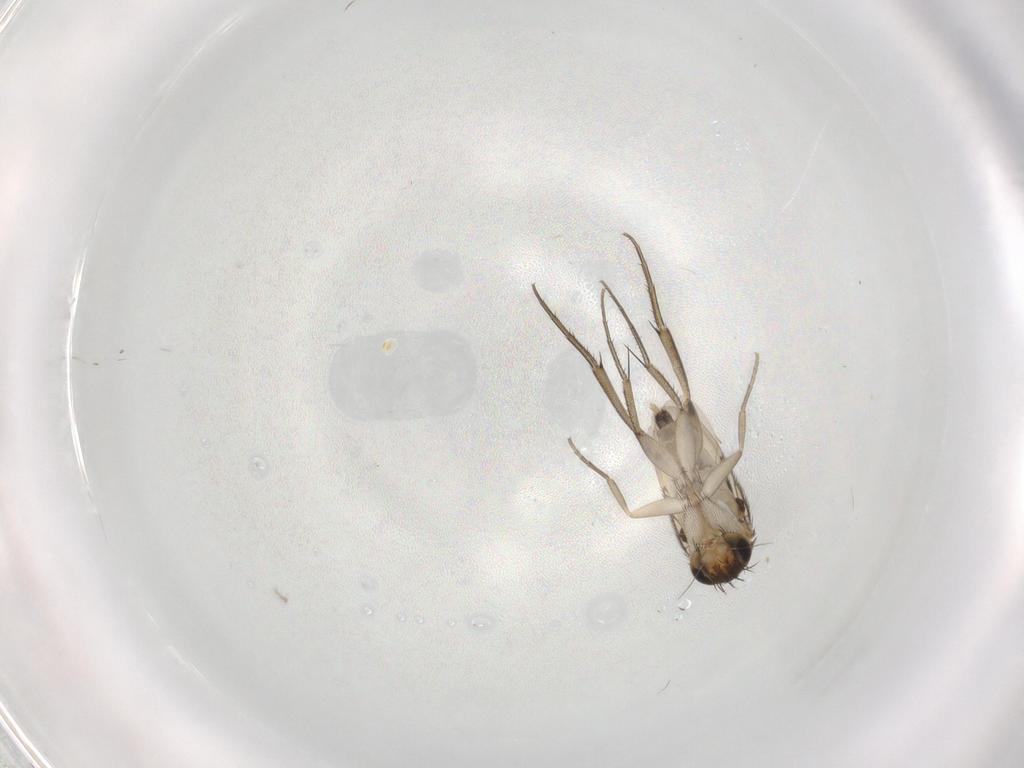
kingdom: Animalia
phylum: Arthropoda
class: Insecta
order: Diptera
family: Phoridae
